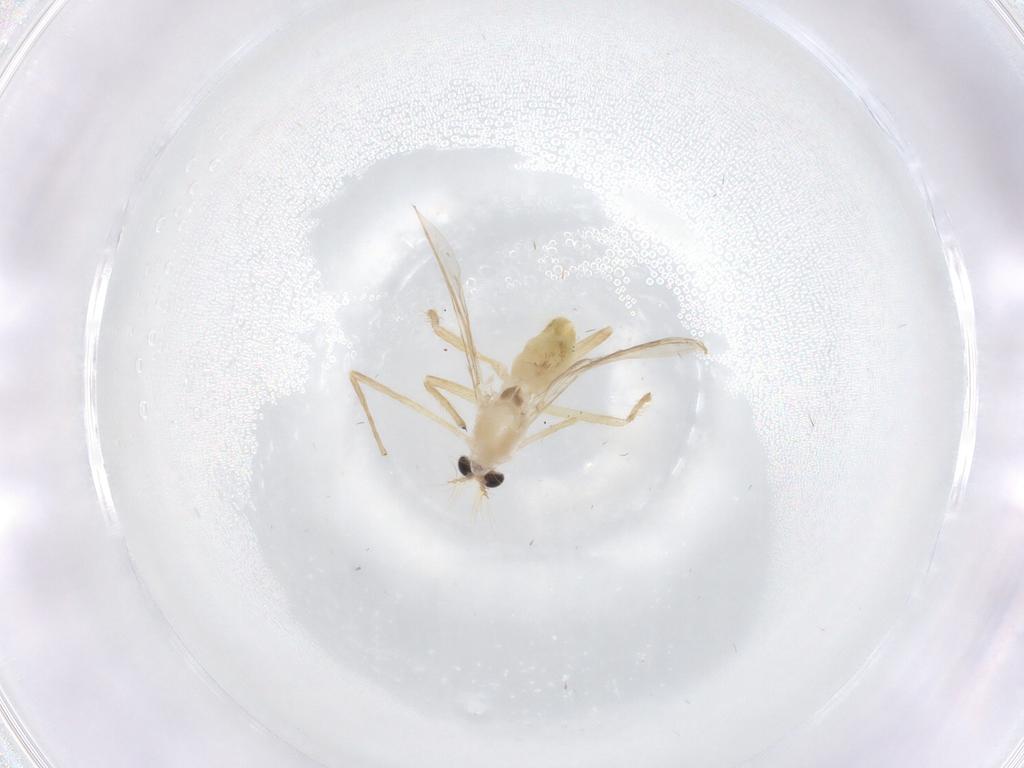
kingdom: Animalia
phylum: Arthropoda
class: Insecta
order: Diptera
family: Chironomidae
